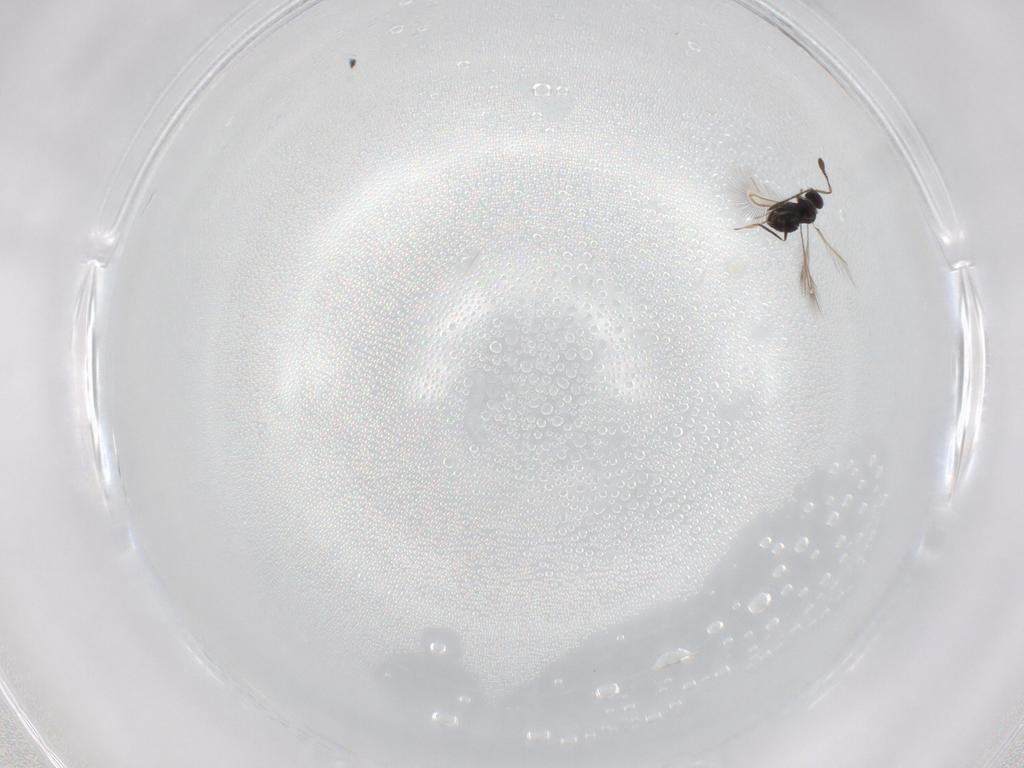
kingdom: Animalia
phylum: Arthropoda
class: Insecta
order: Hymenoptera
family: Mymaridae
